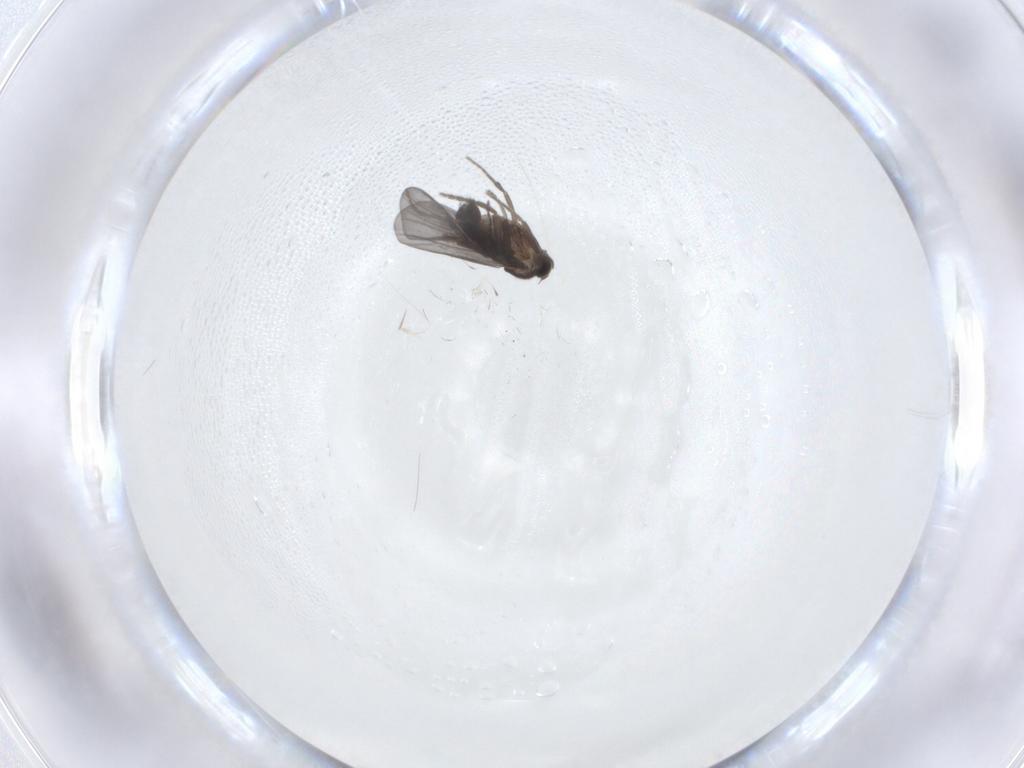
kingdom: Animalia
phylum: Arthropoda
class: Insecta
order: Diptera
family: Phoridae
